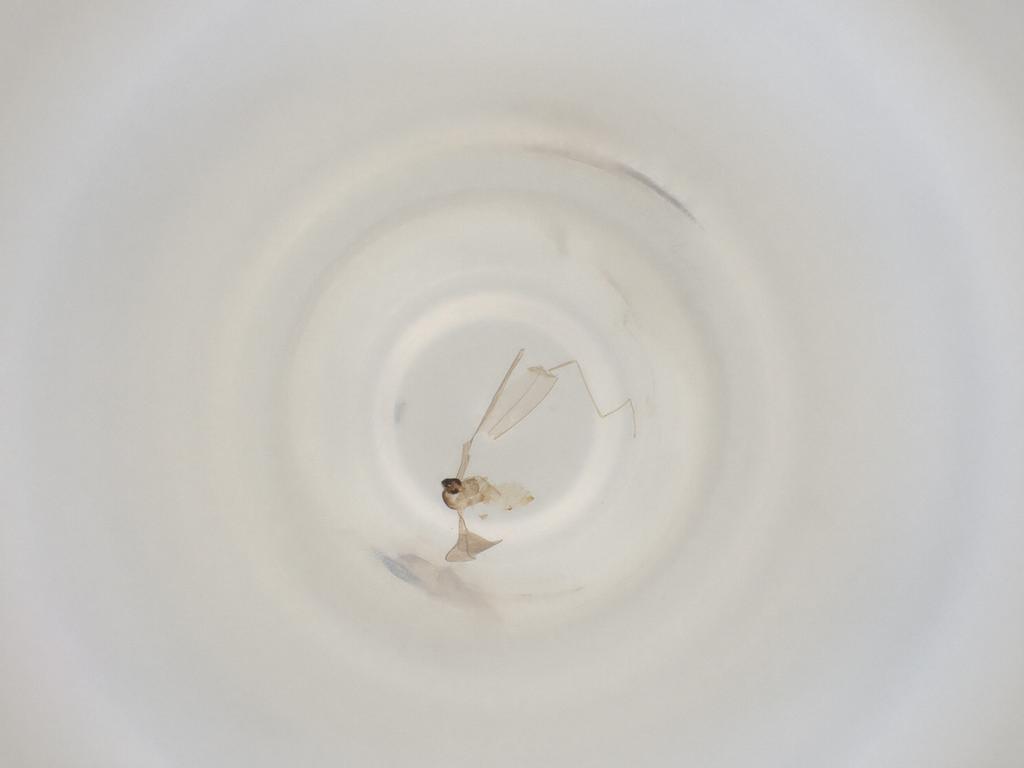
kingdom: Animalia
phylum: Arthropoda
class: Insecta
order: Diptera
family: Cecidomyiidae
